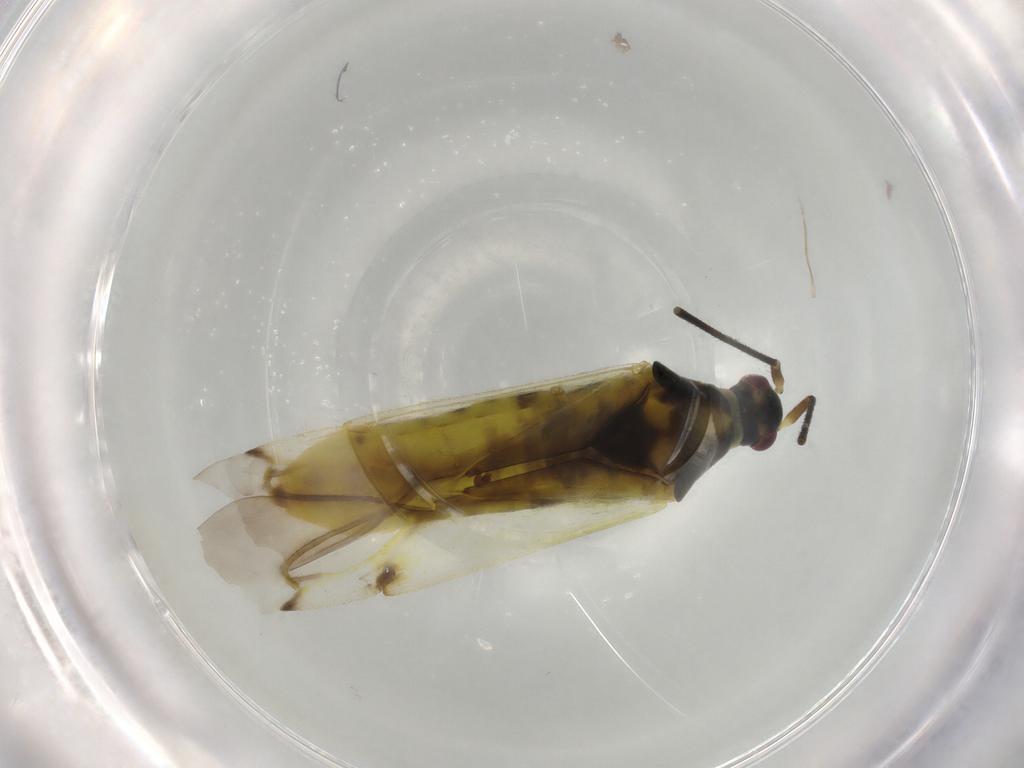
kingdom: Animalia
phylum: Arthropoda
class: Insecta
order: Hemiptera
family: Miridae
